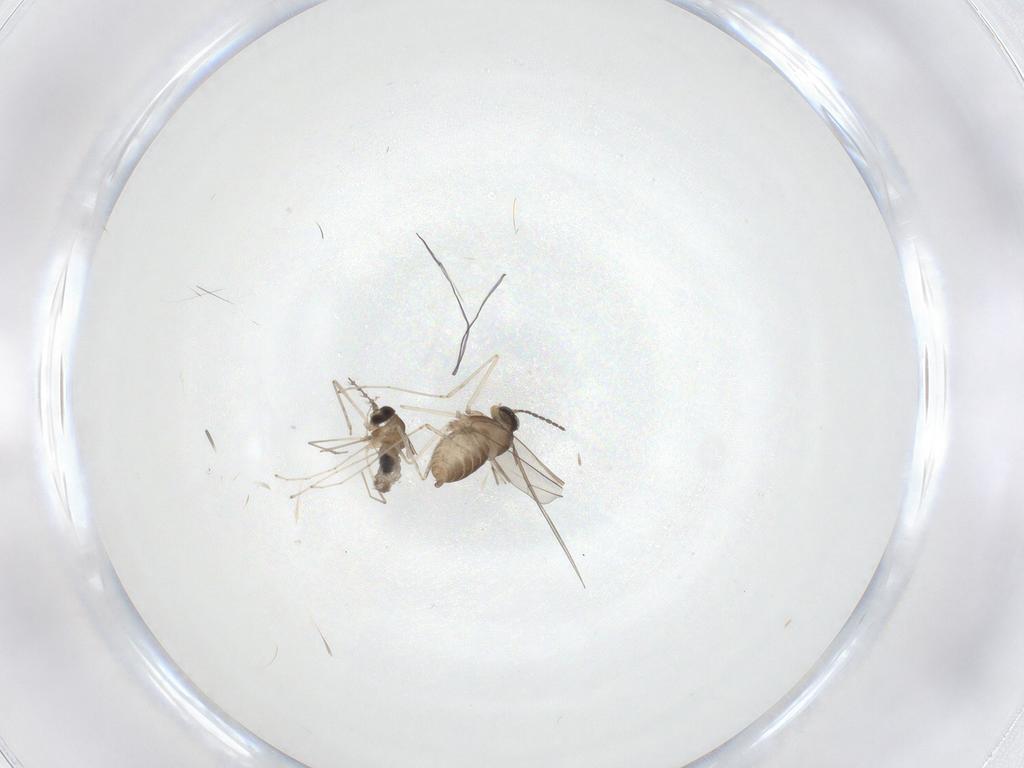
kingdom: Animalia
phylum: Arthropoda
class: Insecta
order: Diptera
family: Cecidomyiidae
